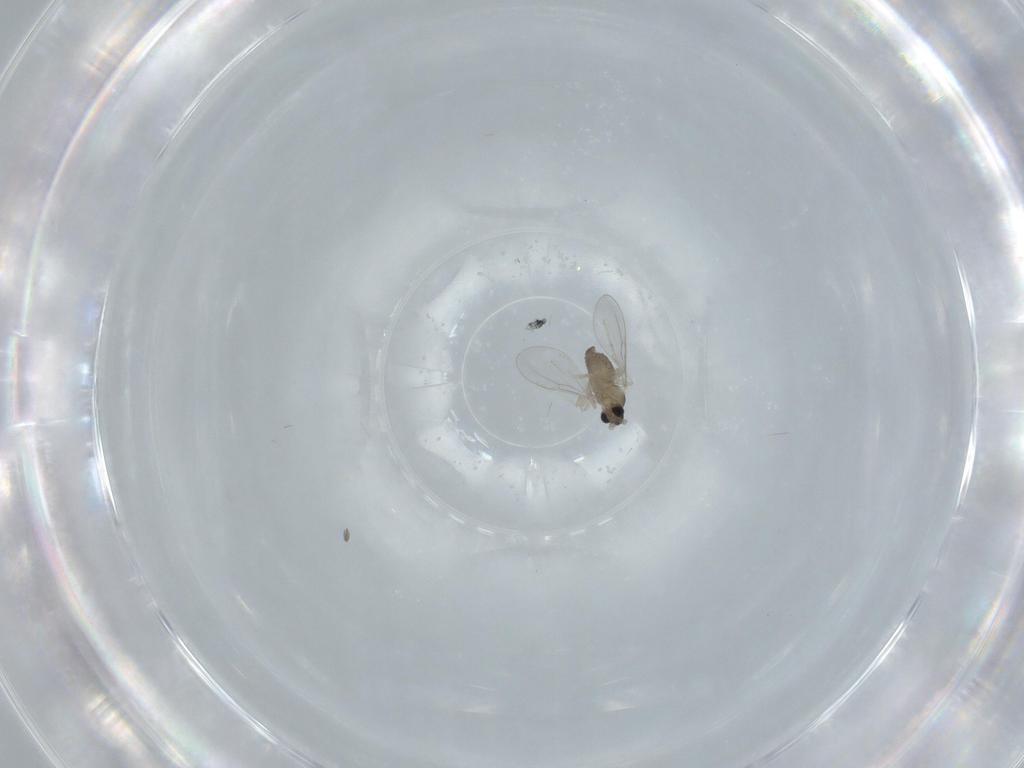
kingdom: Animalia
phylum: Arthropoda
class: Insecta
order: Diptera
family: Cecidomyiidae
